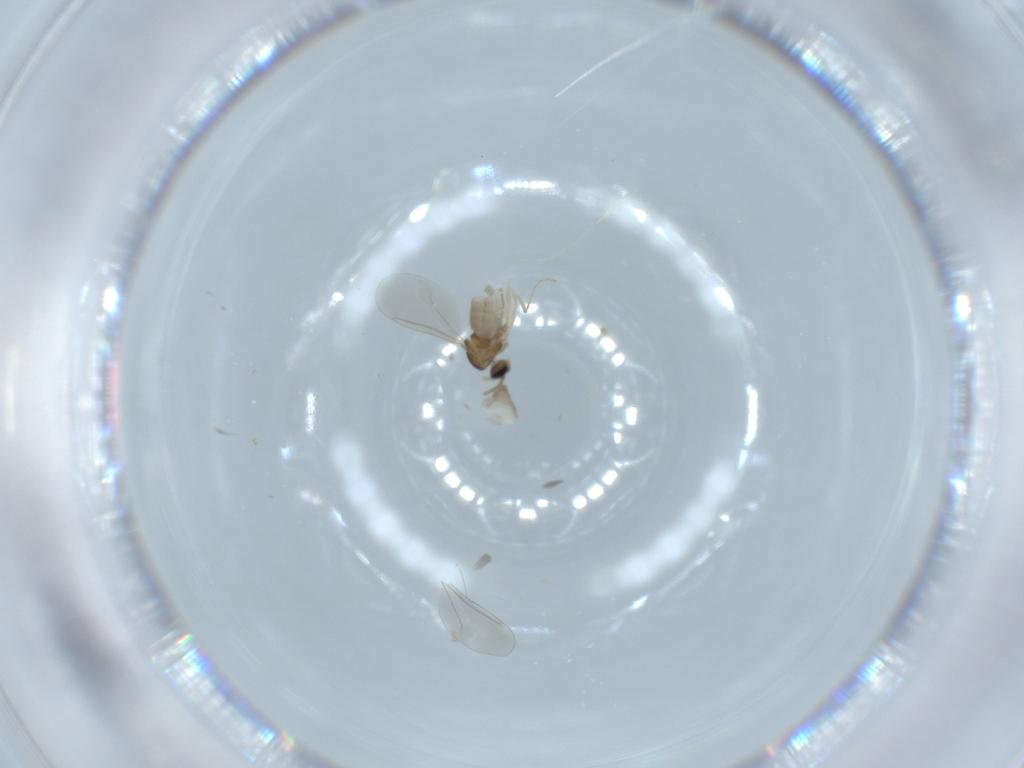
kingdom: Animalia
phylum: Arthropoda
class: Insecta
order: Diptera
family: Cecidomyiidae
